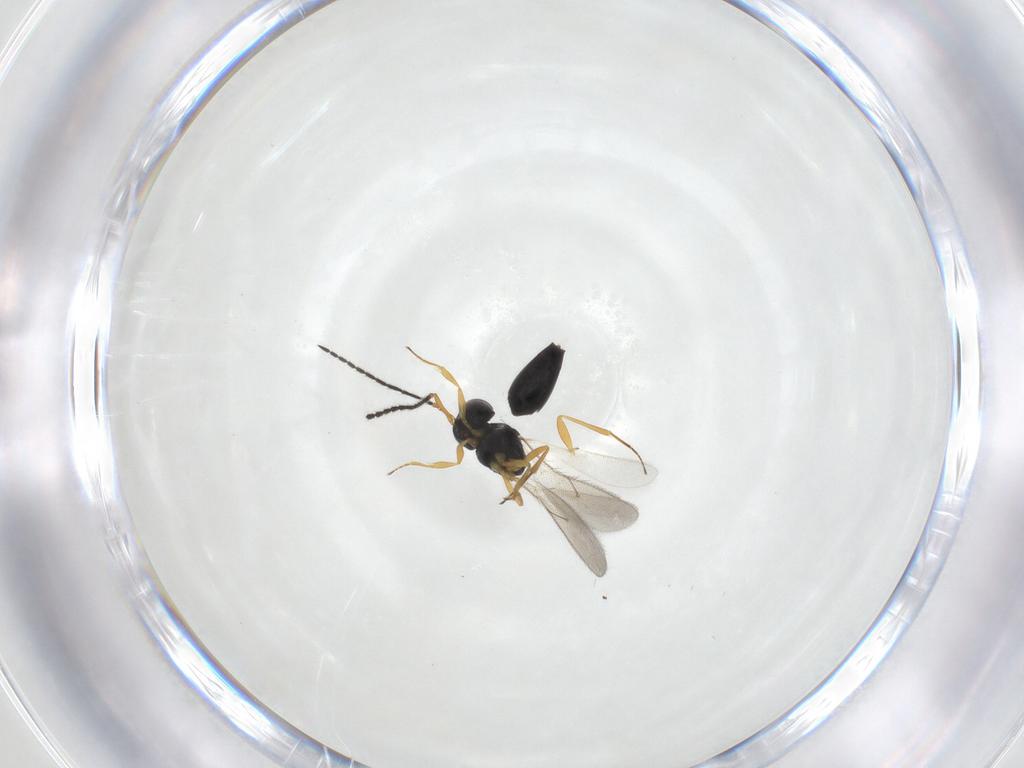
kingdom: Animalia
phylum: Arthropoda
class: Insecta
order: Hymenoptera
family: Scelionidae
